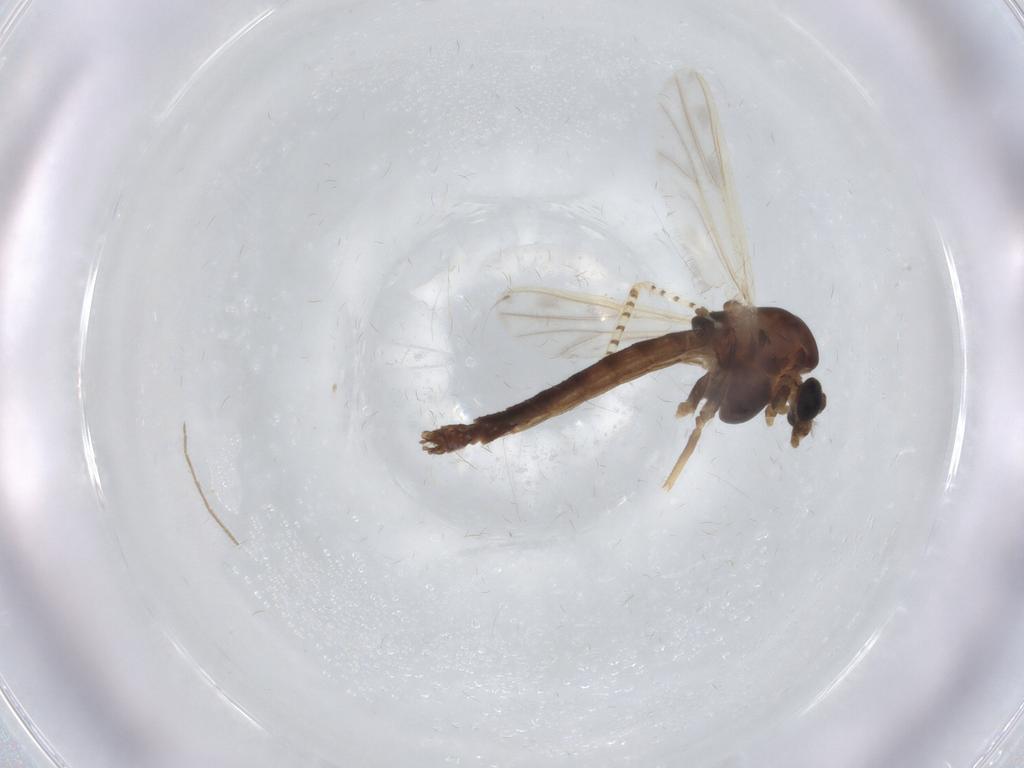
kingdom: Animalia
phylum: Arthropoda
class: Insecta
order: Diptera
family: Chironomidae
